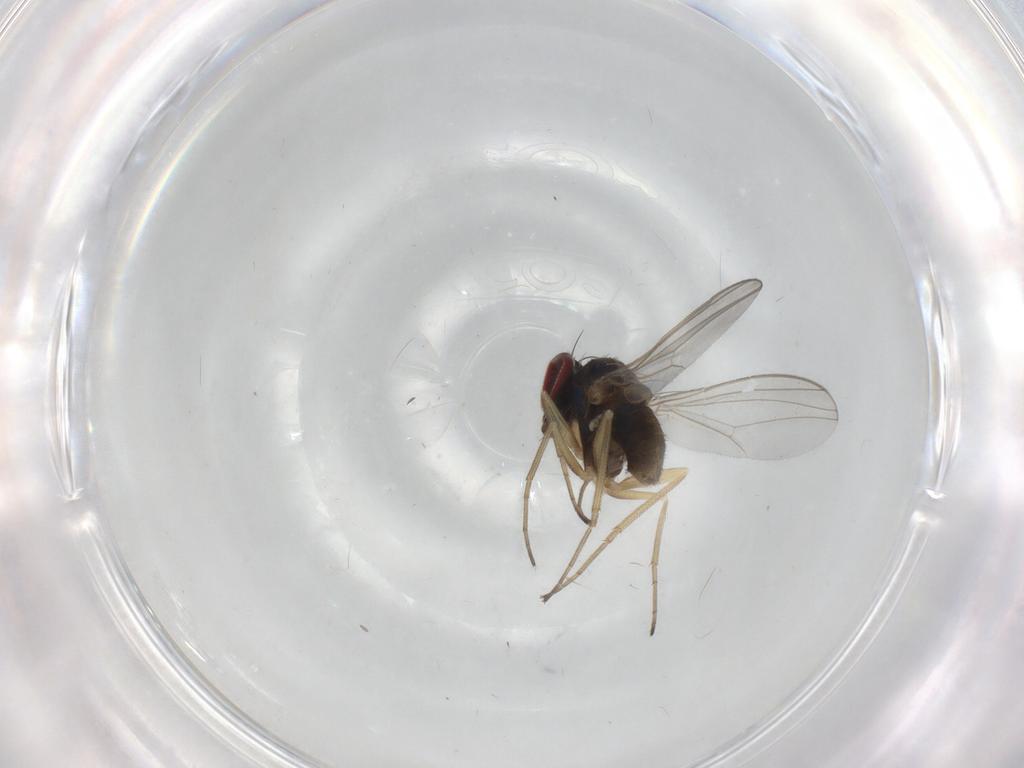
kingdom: Animalia
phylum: Arthropoda
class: Insecta
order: Diptera
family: Dolichopodidae
